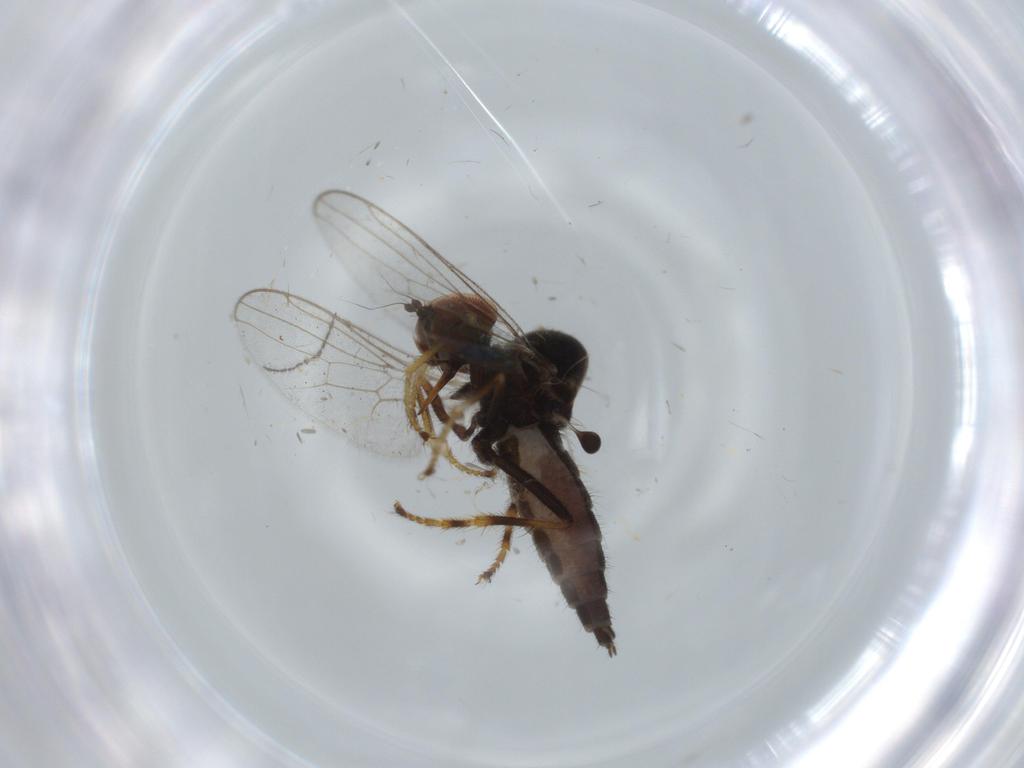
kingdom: Animalia
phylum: Arthropoda
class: Insecta
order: Diptera
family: Hybotidae
